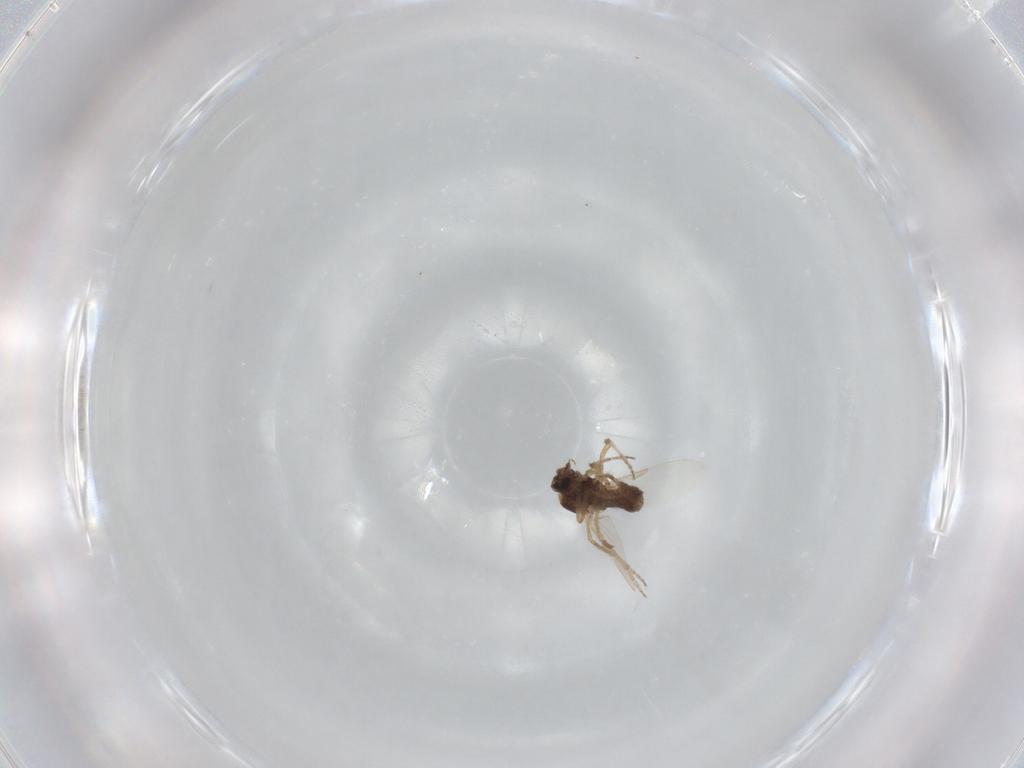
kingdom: Animalia
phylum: Arthropoda
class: Insecta
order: Diptera
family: Ceratopogonidae
